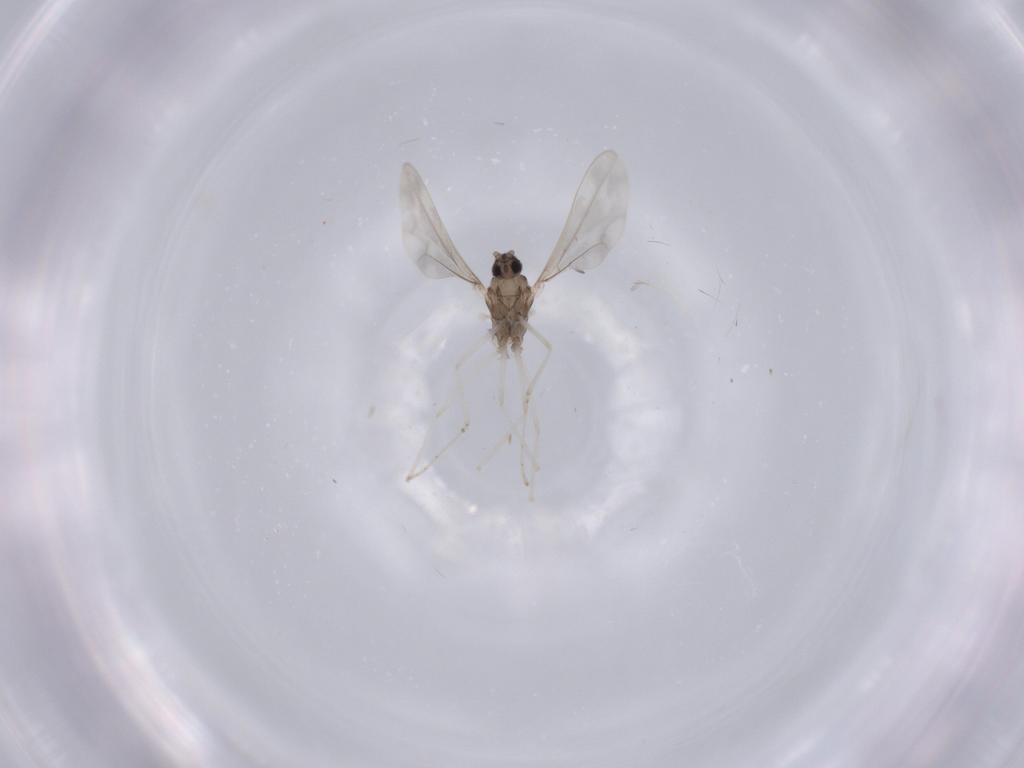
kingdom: Animalia
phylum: Arthropoda
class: Insecta
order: Diptera
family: Cecidomyiidae
